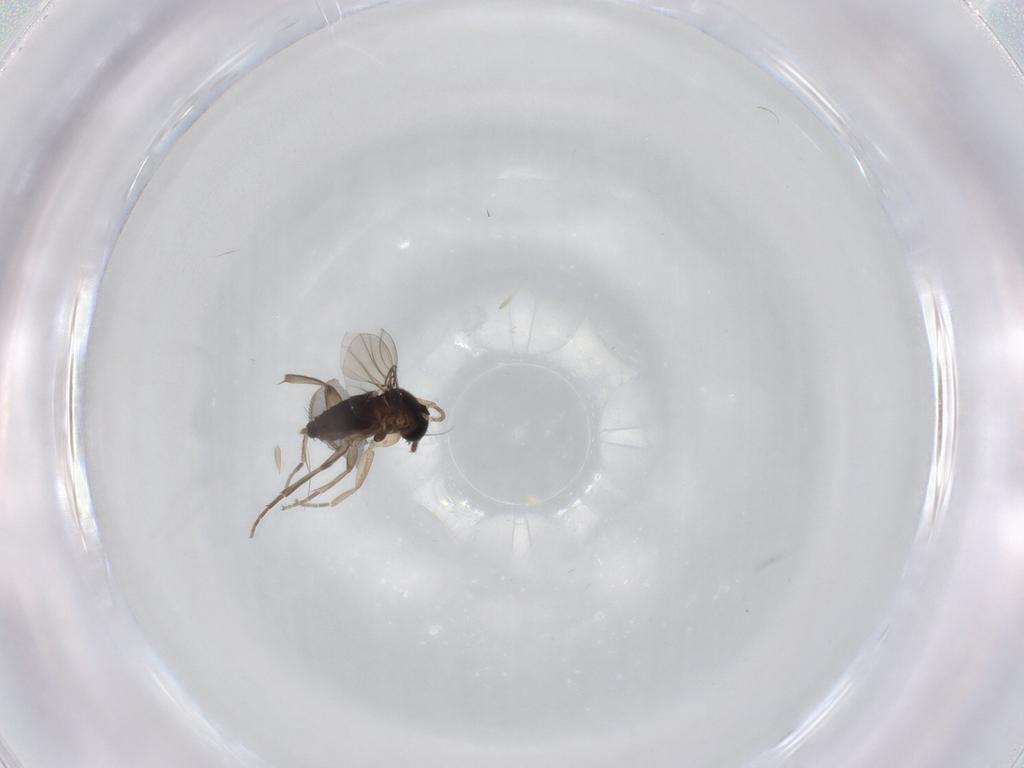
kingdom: Animalia
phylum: Arthropoda
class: Insecta
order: Diptera
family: Phoridae
